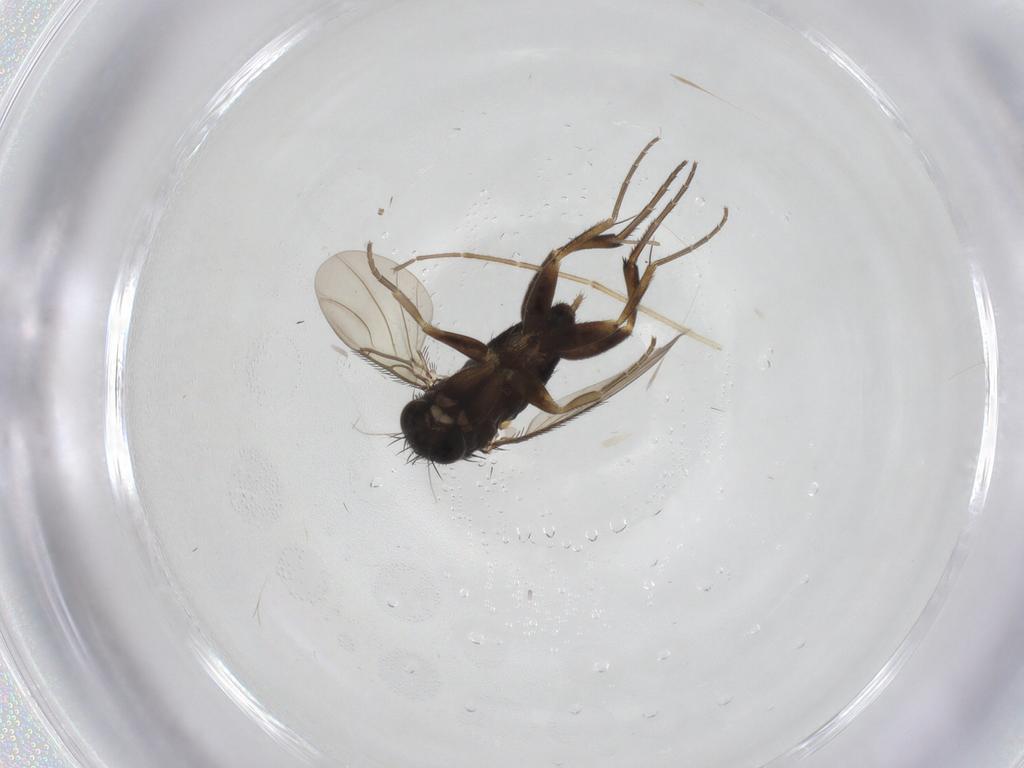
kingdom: Animalia
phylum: Arthropoda
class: Insecta
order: Diptera
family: Phoridae
